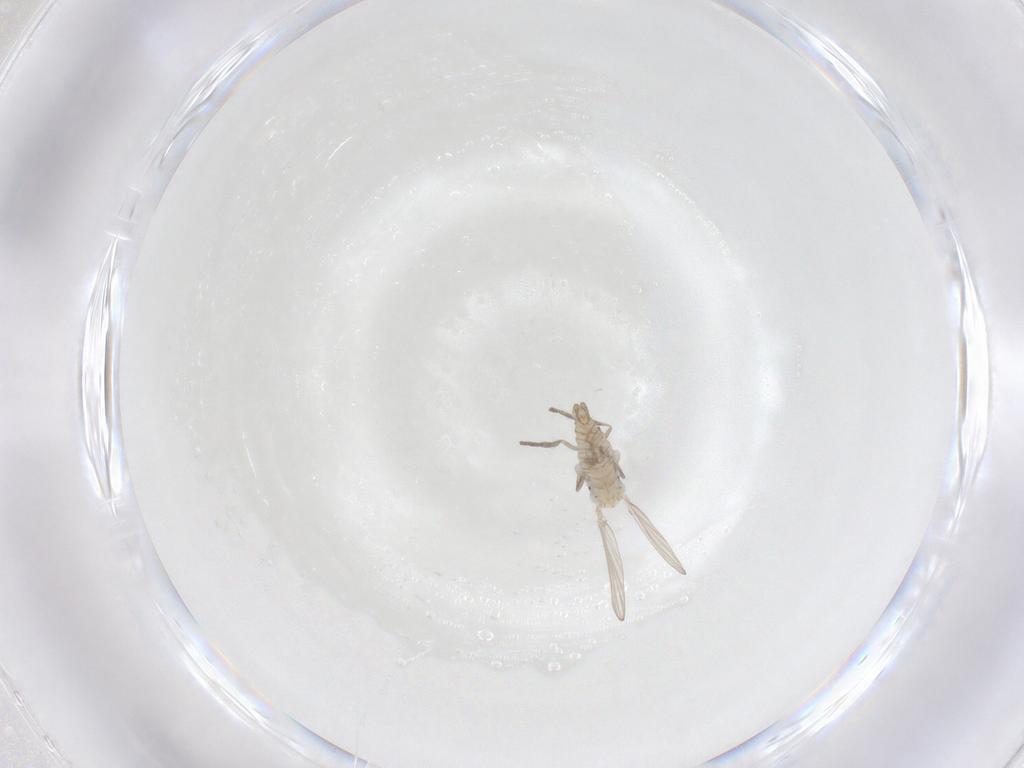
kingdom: Animalia
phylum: Arthropoda
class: Insecta
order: Diptera
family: Psychodidae
